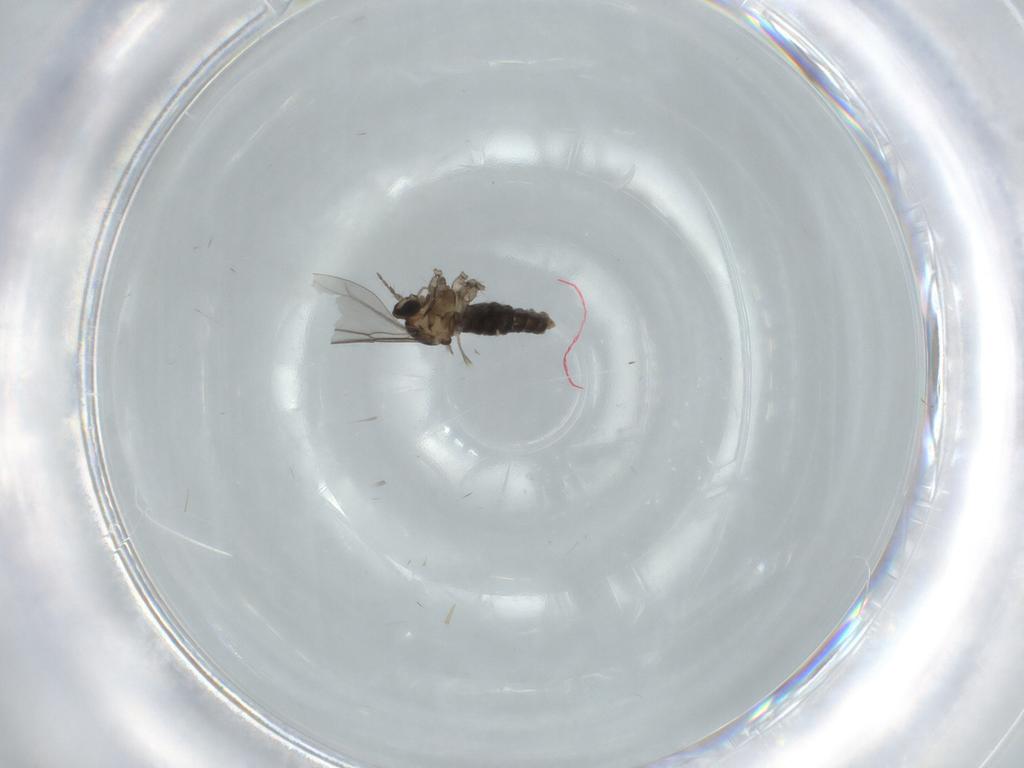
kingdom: Animalia
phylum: Arthropoda
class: Insecta
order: Diptera
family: Cecidomyiidae
